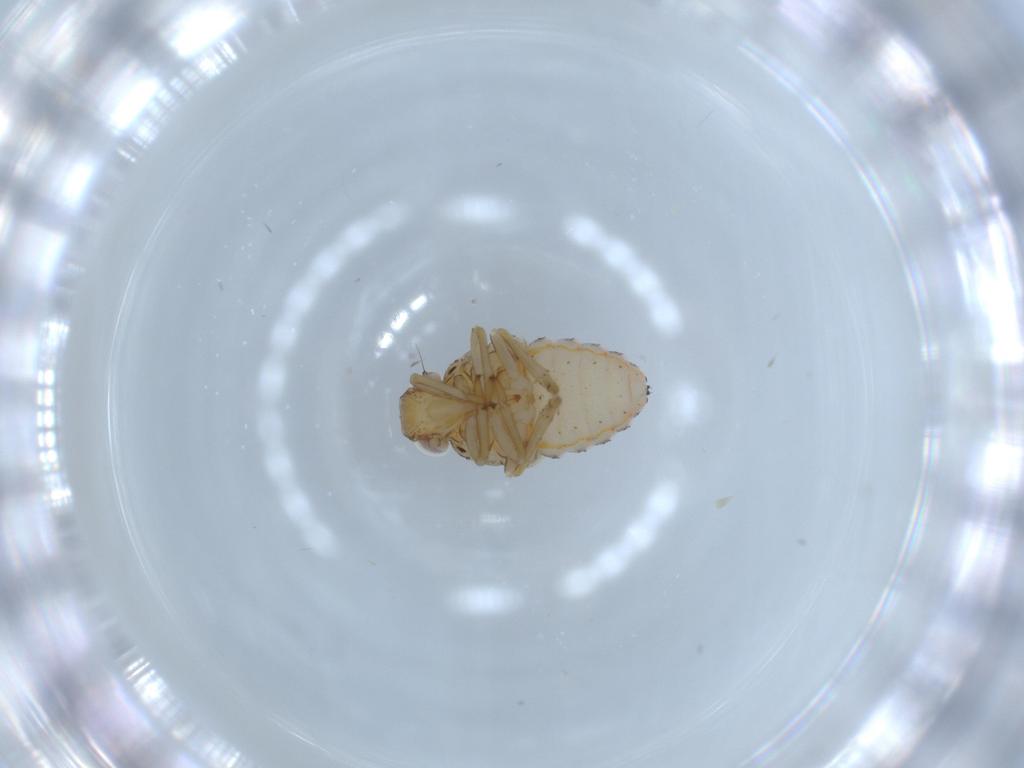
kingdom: Animalia
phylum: Arthropoda
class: Insecta
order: Hemiptera
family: Issidae
